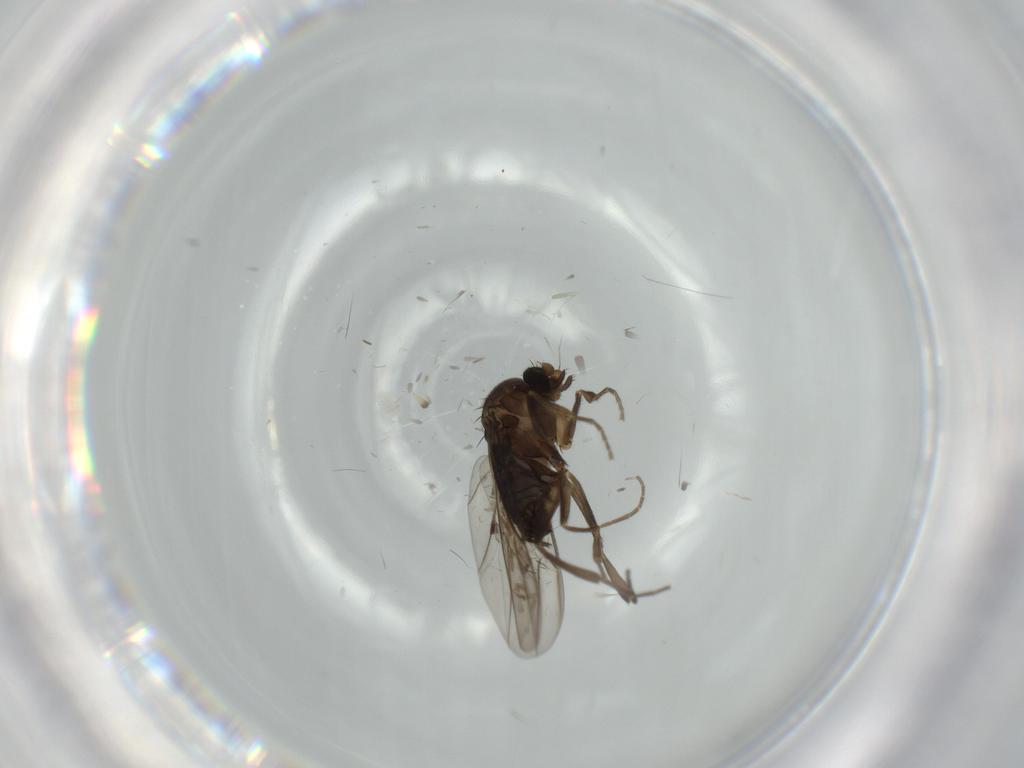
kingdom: Animalia
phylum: Arthropoda
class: Insecta
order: Diptera
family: Sciaridae
